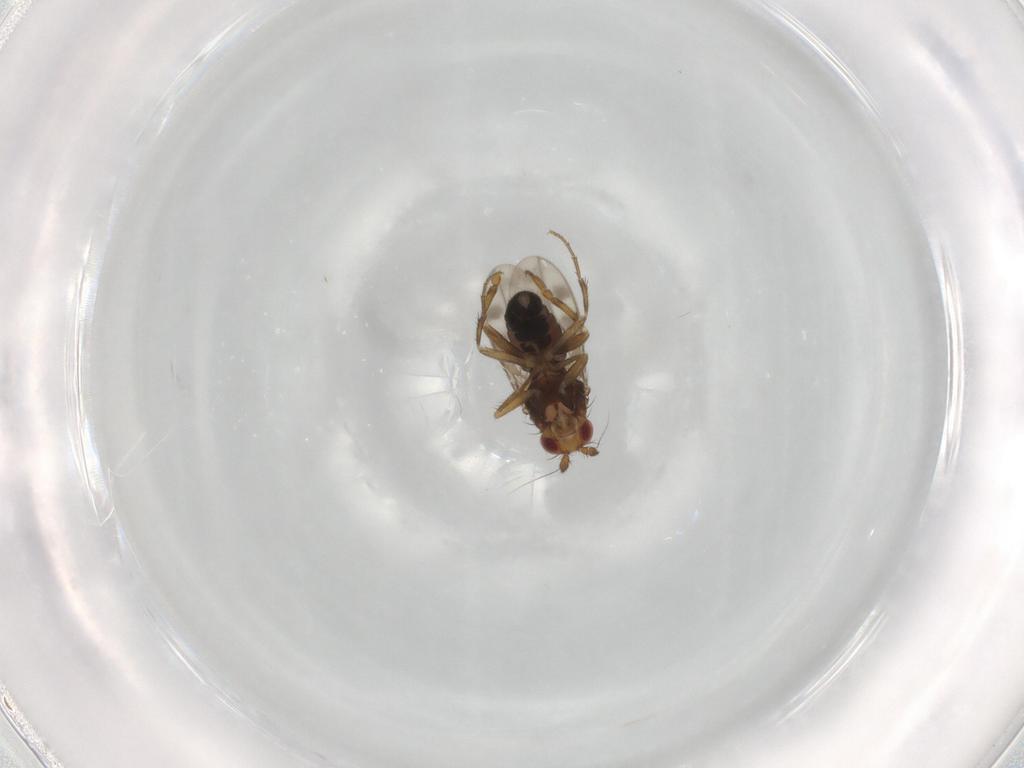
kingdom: Animalia
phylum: Arthropoda
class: Insecta
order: Diptera
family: Sphaeroceridae
